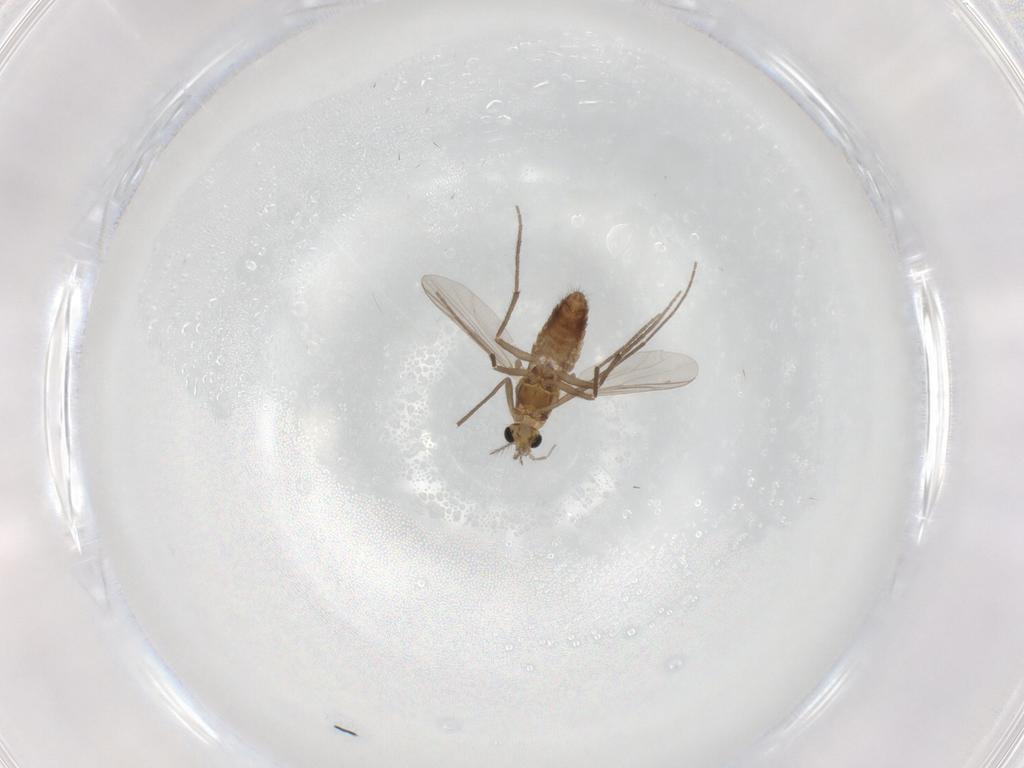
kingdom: Animalia
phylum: Arthropoda
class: Insecta
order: Diptera
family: Chironomidae
